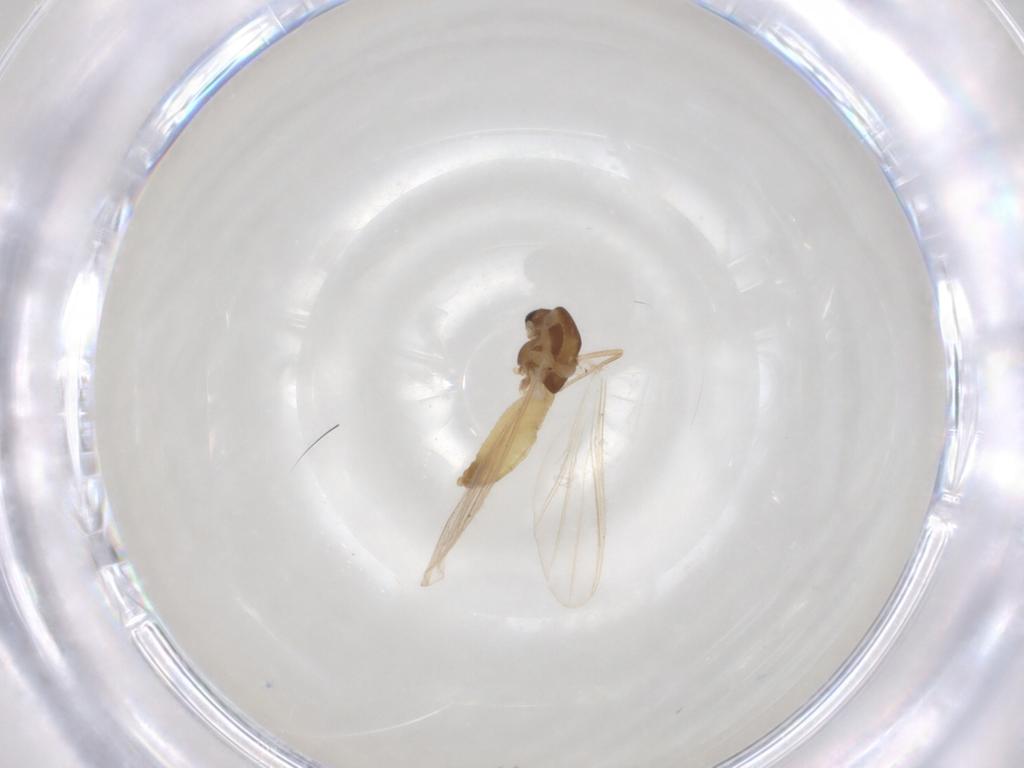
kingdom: Animalia
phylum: Arthropoda
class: Insecta
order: Diptera
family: Chironomidae
